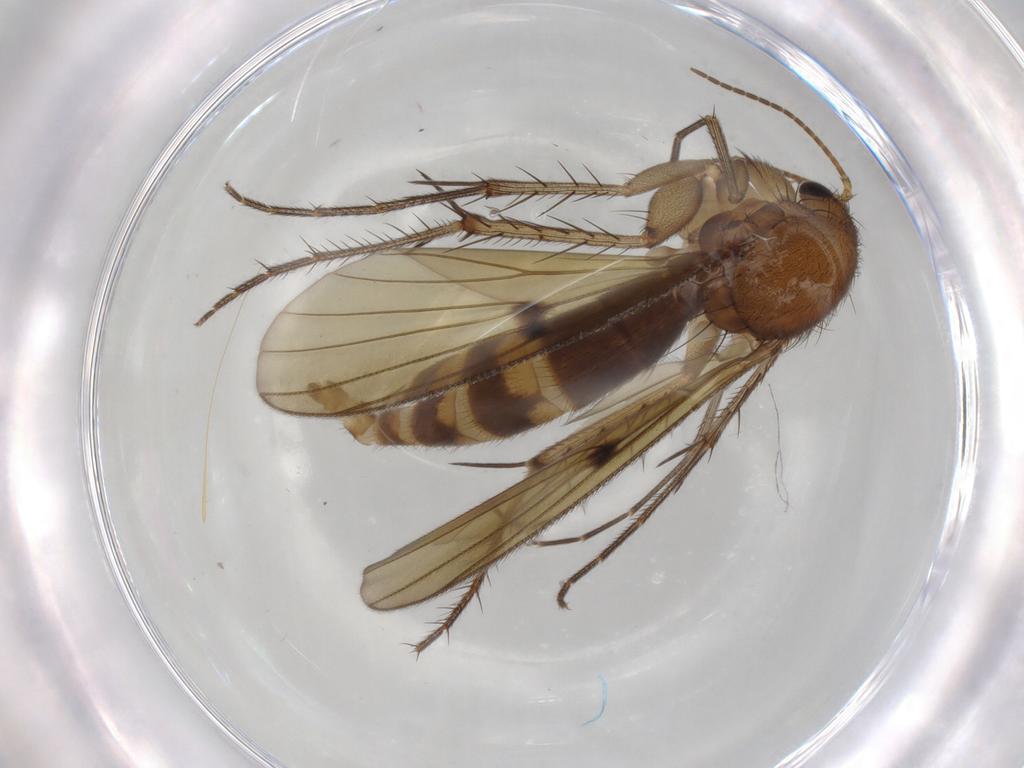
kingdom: Animalia
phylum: Arthropoda
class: Insecta
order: Diptera
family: Mycetophilidae
